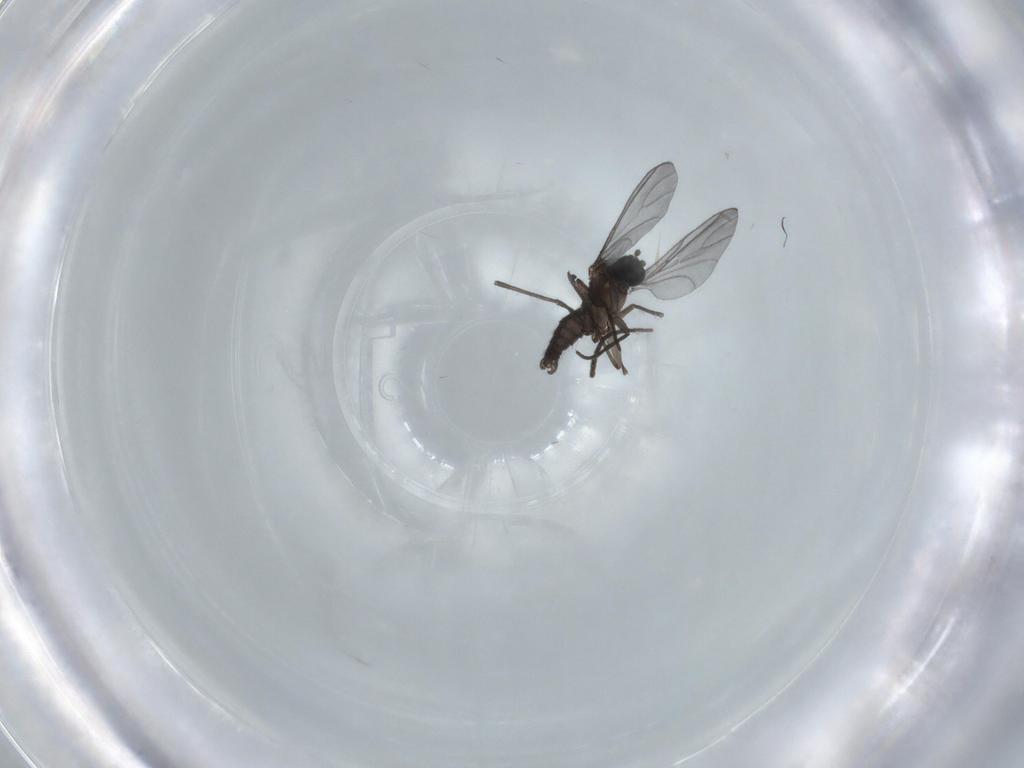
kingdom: Animalia
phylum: Arthropoda
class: Insecta
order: Diptera
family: Sciaridae
